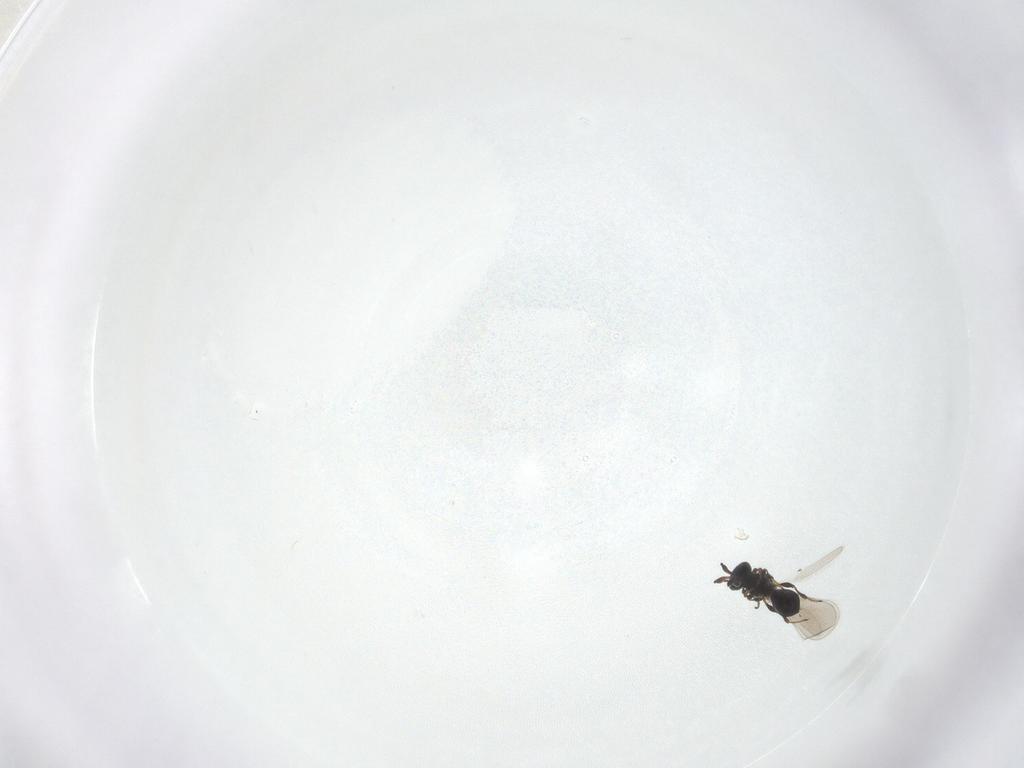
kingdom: Animalia
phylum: Arthropoda
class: Insecta
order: Hymenoptera
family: Platygastridae
